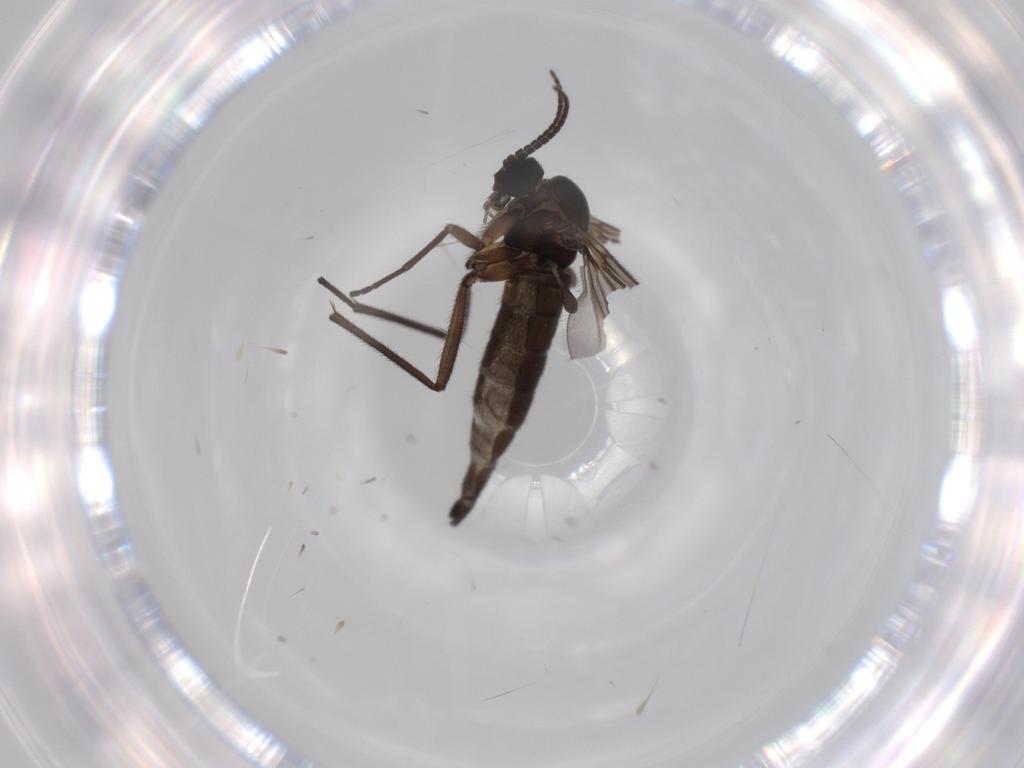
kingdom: Animalia
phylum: Arthropoda
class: Insecta
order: Diptera
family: Sciaridae
